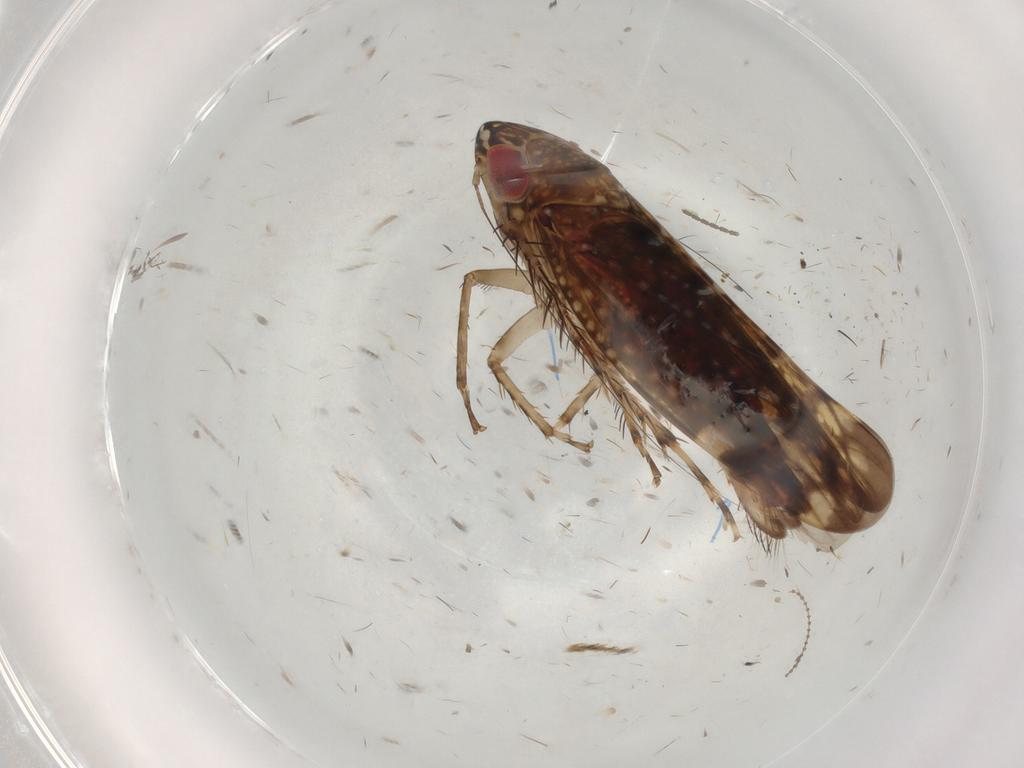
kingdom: Animalia
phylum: Arthropoda
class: Insecta
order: Hemiptera
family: Cicadellidae
